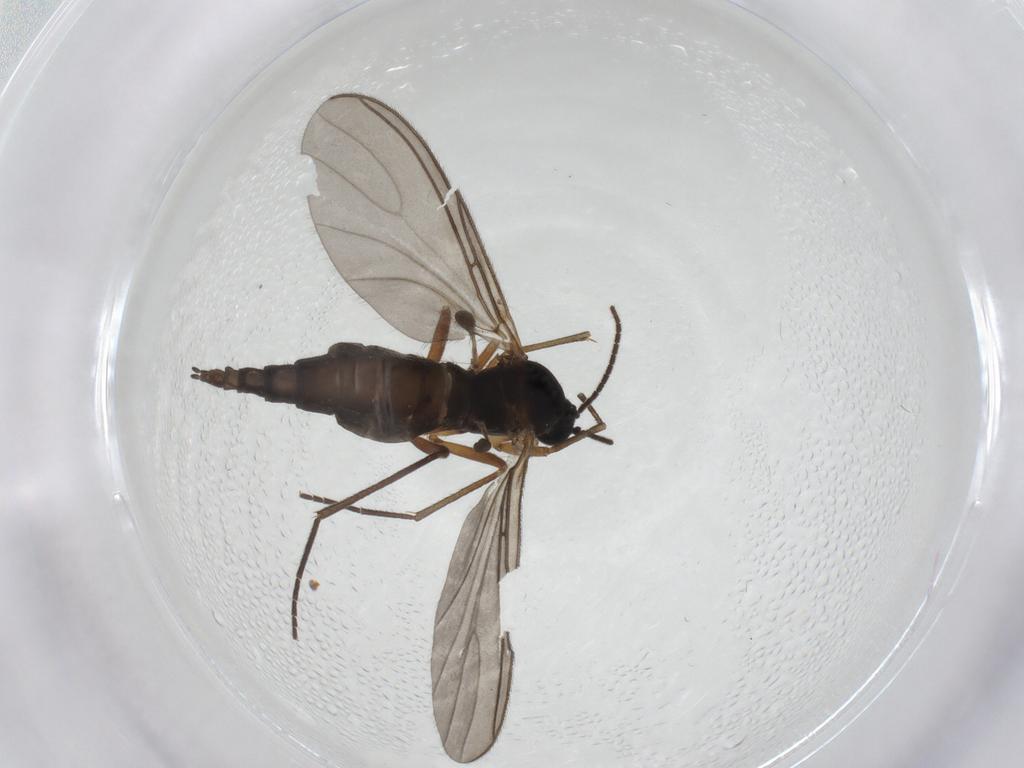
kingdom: Animalia
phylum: Arthropoda
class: Insecta
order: Diptera
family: Sciaridae
